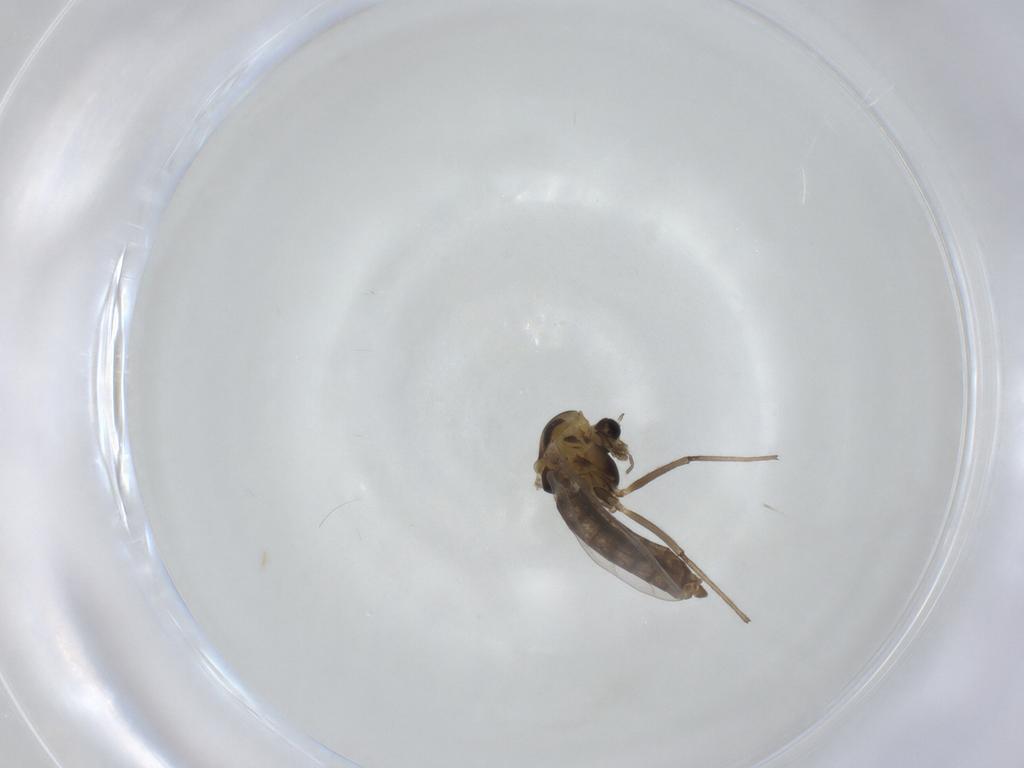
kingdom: Animalia
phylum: Arthropoda
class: Insecta
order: Diptera
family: Chironomidae
